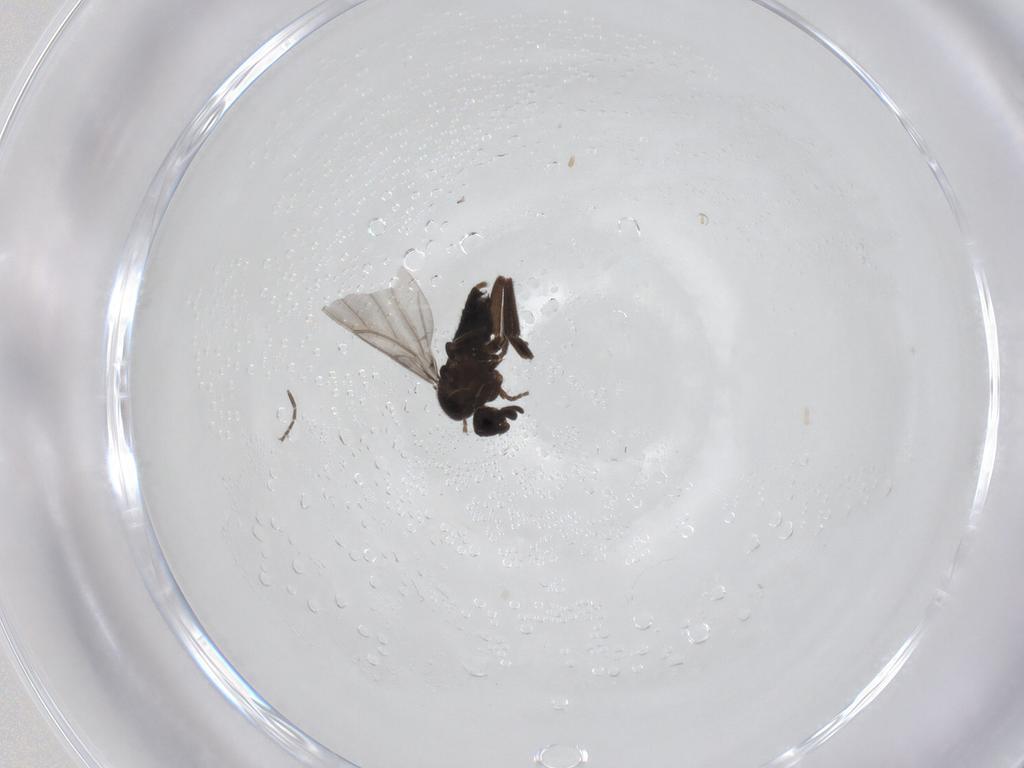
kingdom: Animalia
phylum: Arthropoda
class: Insecta
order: Diptera
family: Phoridae
